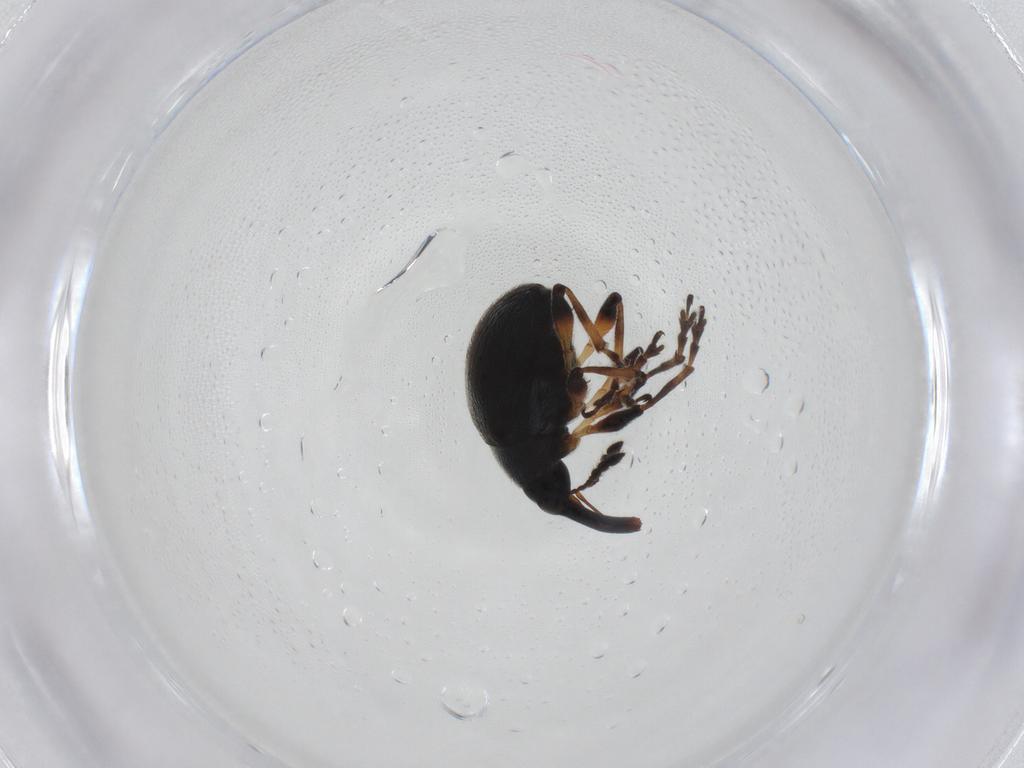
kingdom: Animalia
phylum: Arthropoda
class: Insecta
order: Coleoptera
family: Brentidae
